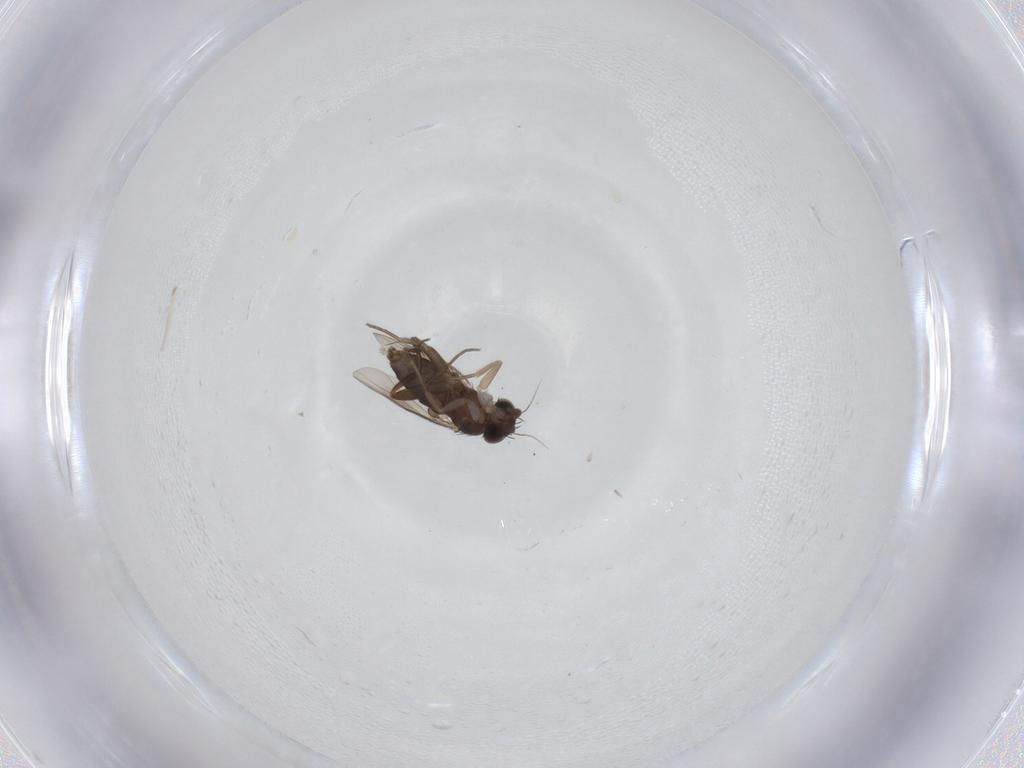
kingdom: Animalia
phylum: Arthropoda
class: Insecta
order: Diptera
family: Phoridae
